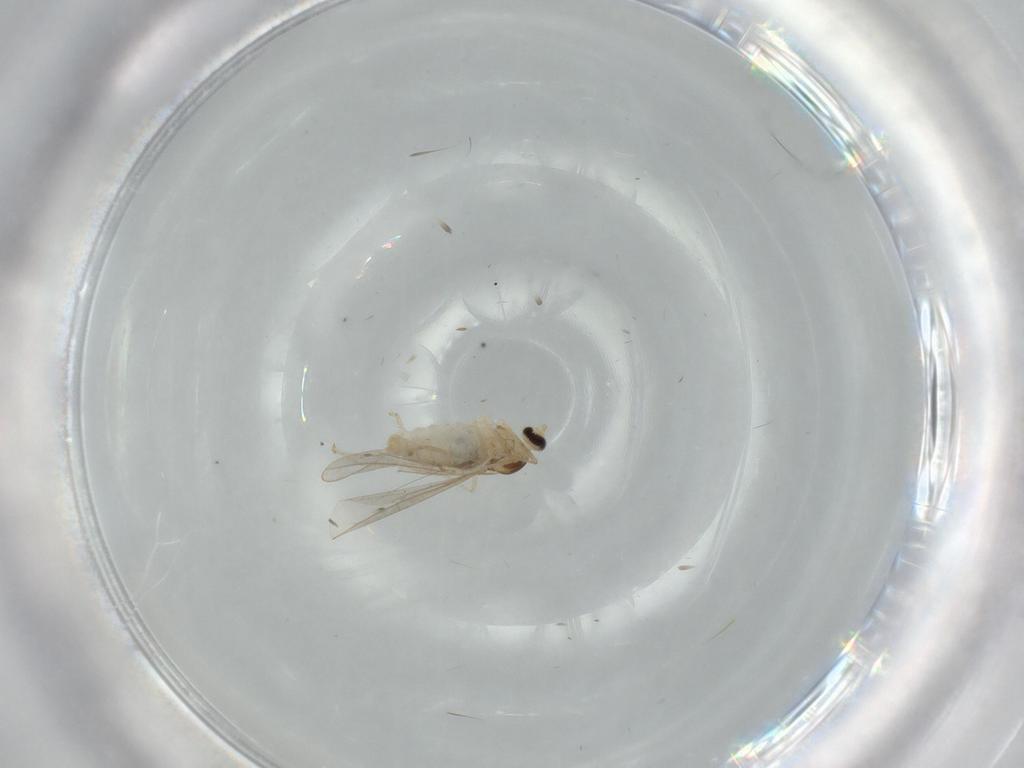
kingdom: Animalia
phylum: Arthropoda
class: Insecta
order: Diptera
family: Cecidomyiidae
